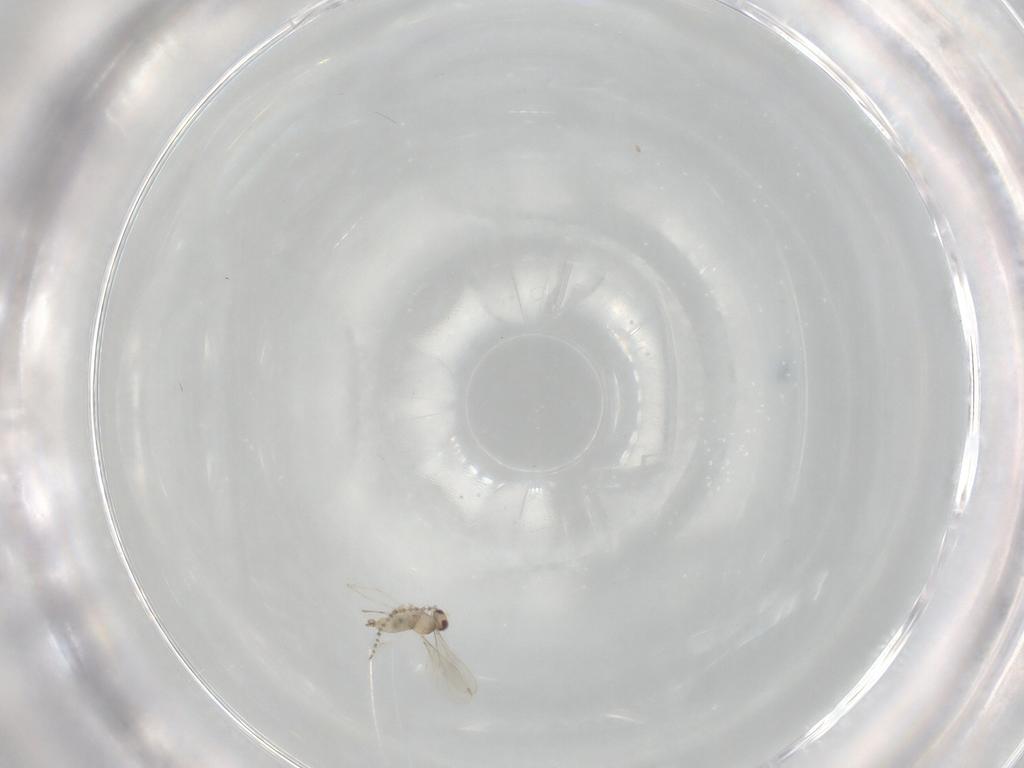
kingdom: Animalia
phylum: Arthropoda
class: Insecta
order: Diptera
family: Cecidomyiidae
